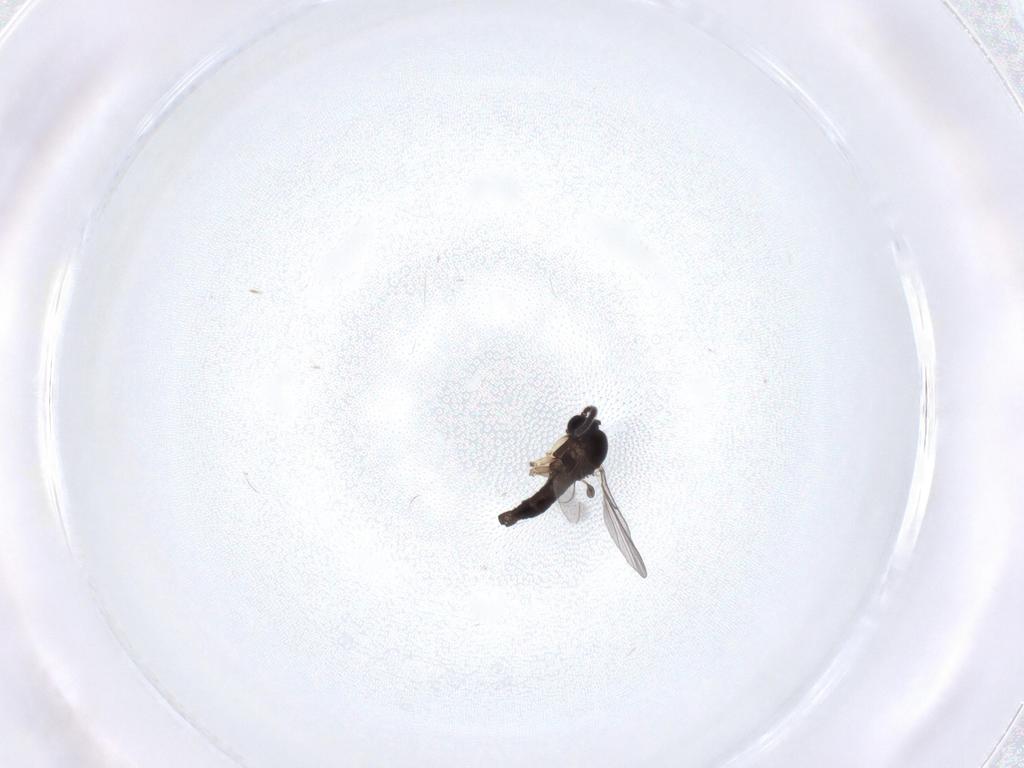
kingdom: Animalia
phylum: Arthropoda
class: Insecta
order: Diptera
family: Sciaridae
